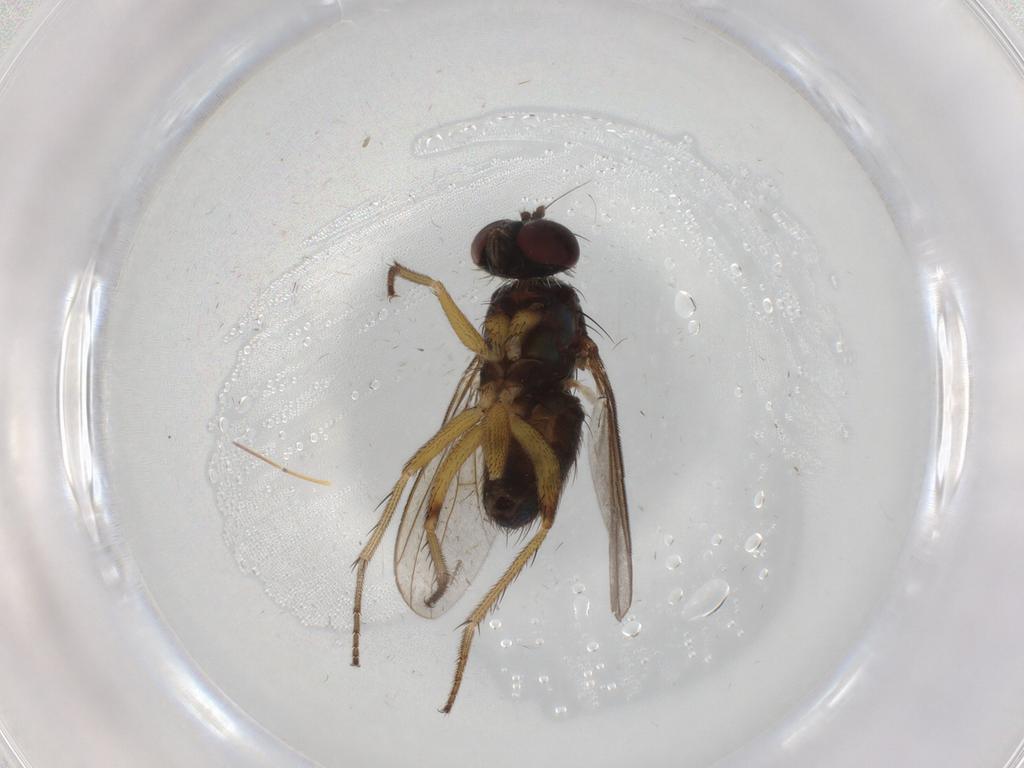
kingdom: Animalia
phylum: Arthropoda
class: Insecta
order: Diptera
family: Dolichopodidae
